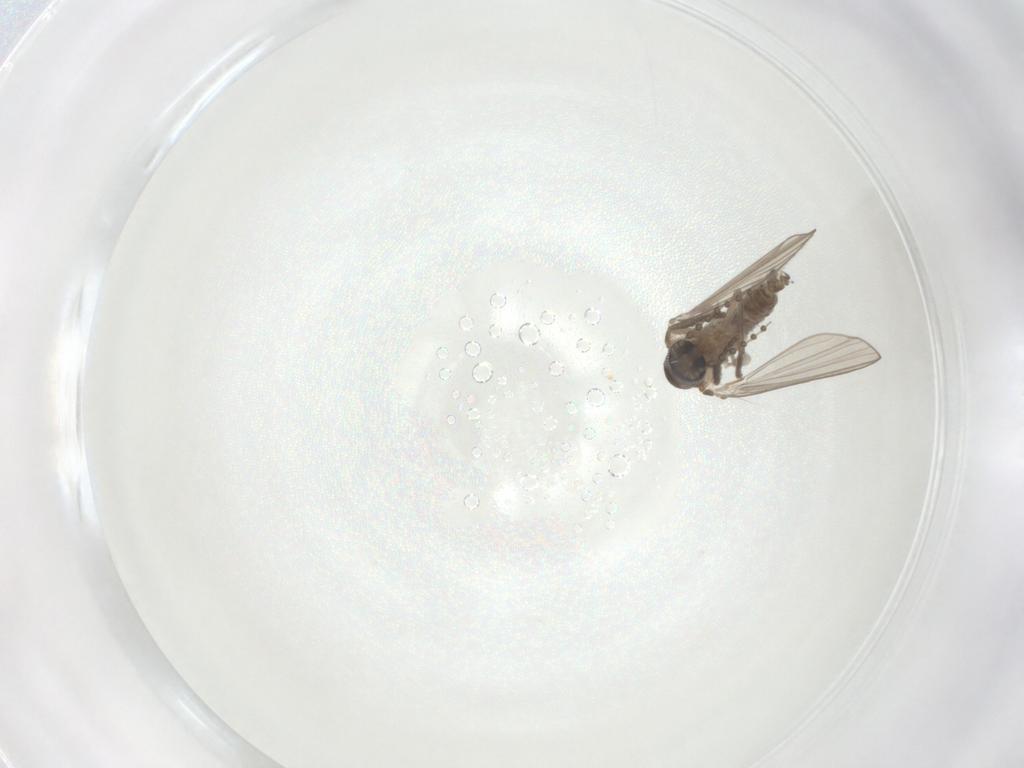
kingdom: Animalia
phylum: Arthropoda
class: Insecta
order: Diptera
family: Psychodidae
